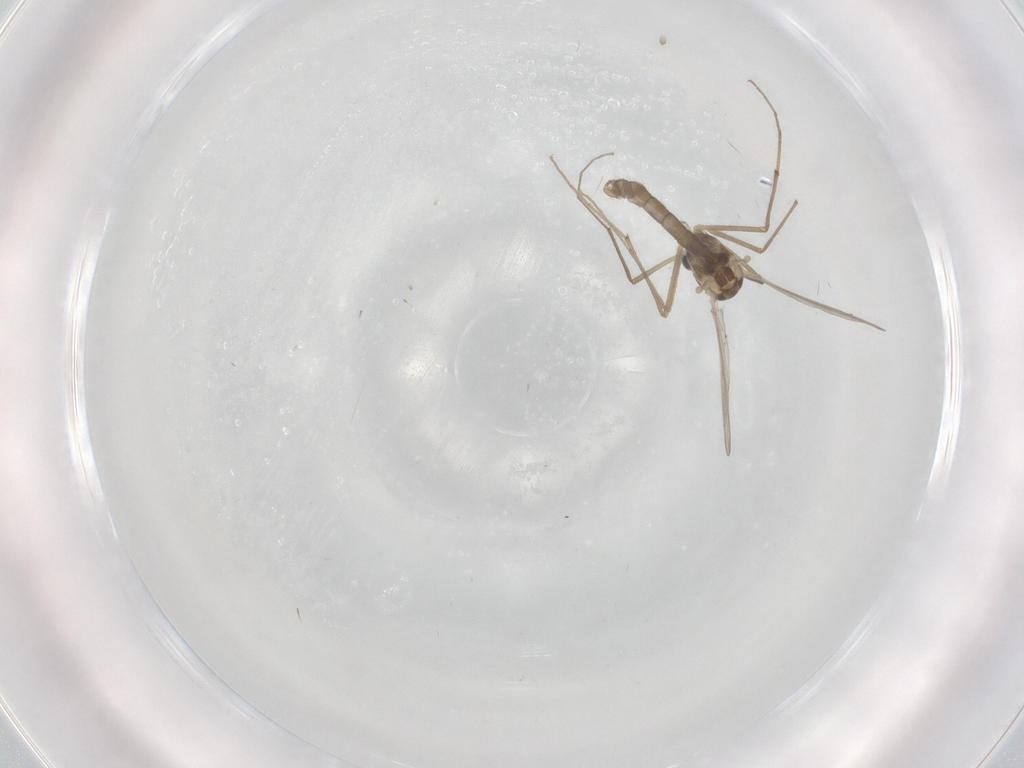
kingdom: Animalia
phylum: Arthropoda
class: Insecta
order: Diptera
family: Chironomidae
